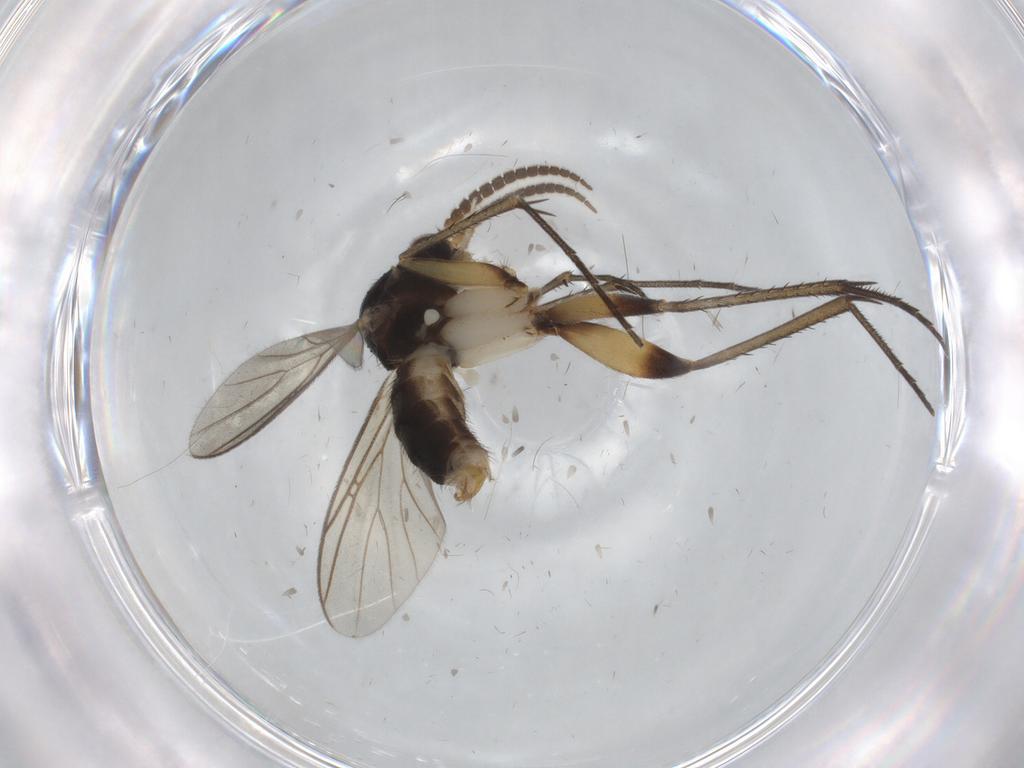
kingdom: Animalia
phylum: Arthropoda
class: Insecta
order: Diptera
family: Mycetophilidae
